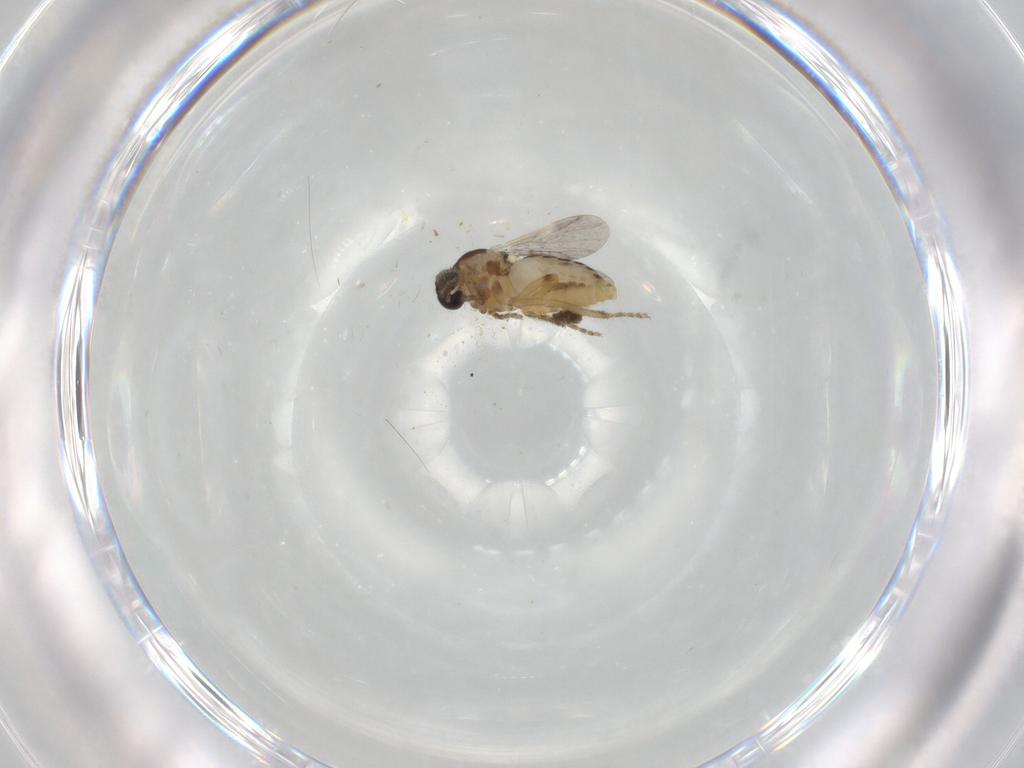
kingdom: Animalia
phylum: Arthropoda
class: Insecta
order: Diptera
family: Ceratopogonidae
